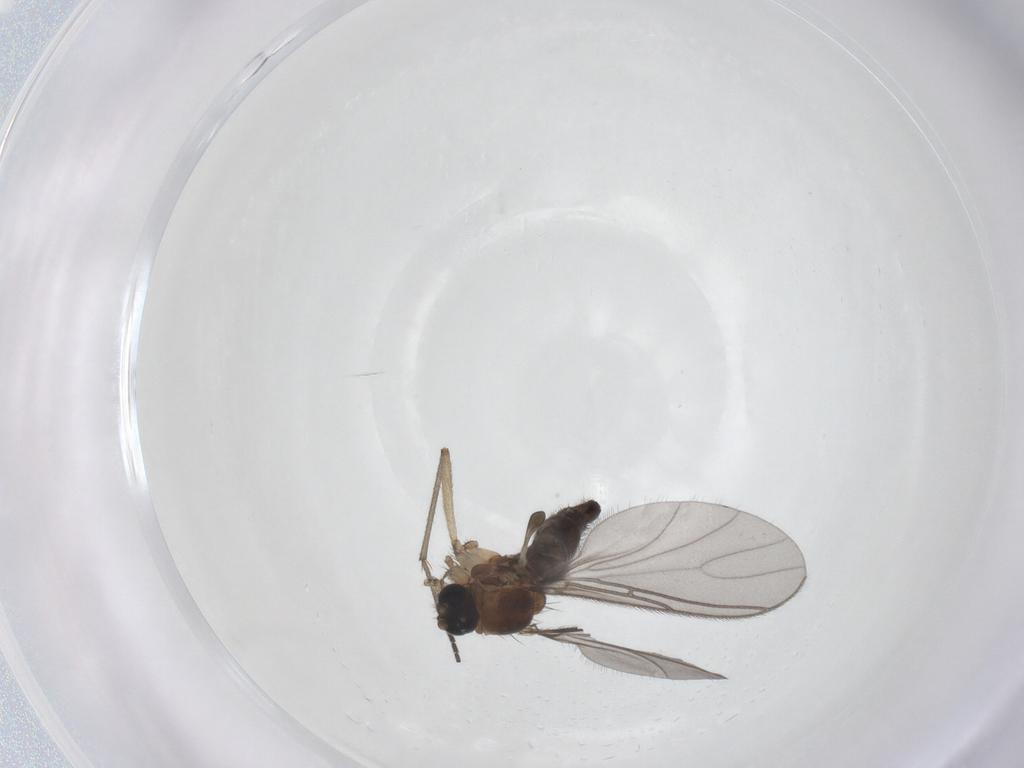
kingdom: Animalia
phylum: Arthropoda
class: Insecta
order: Diptera
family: Sciaridae
